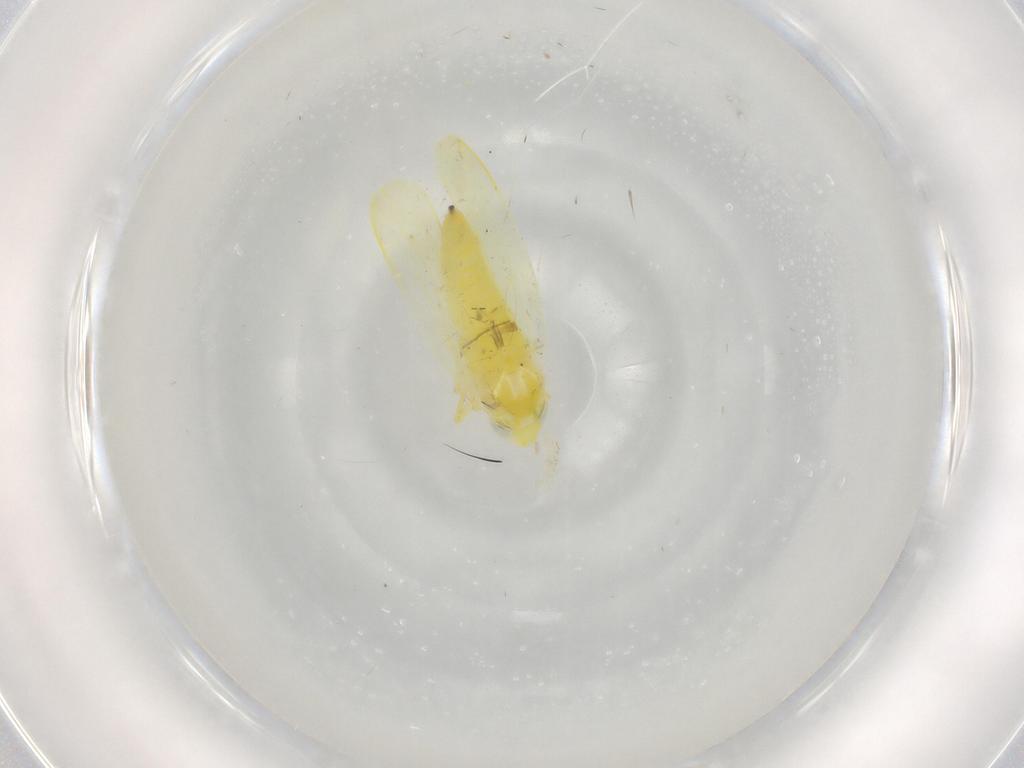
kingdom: Animalia
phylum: Arthropoda
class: Insecta
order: Hemiptera
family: Cicadellidae
